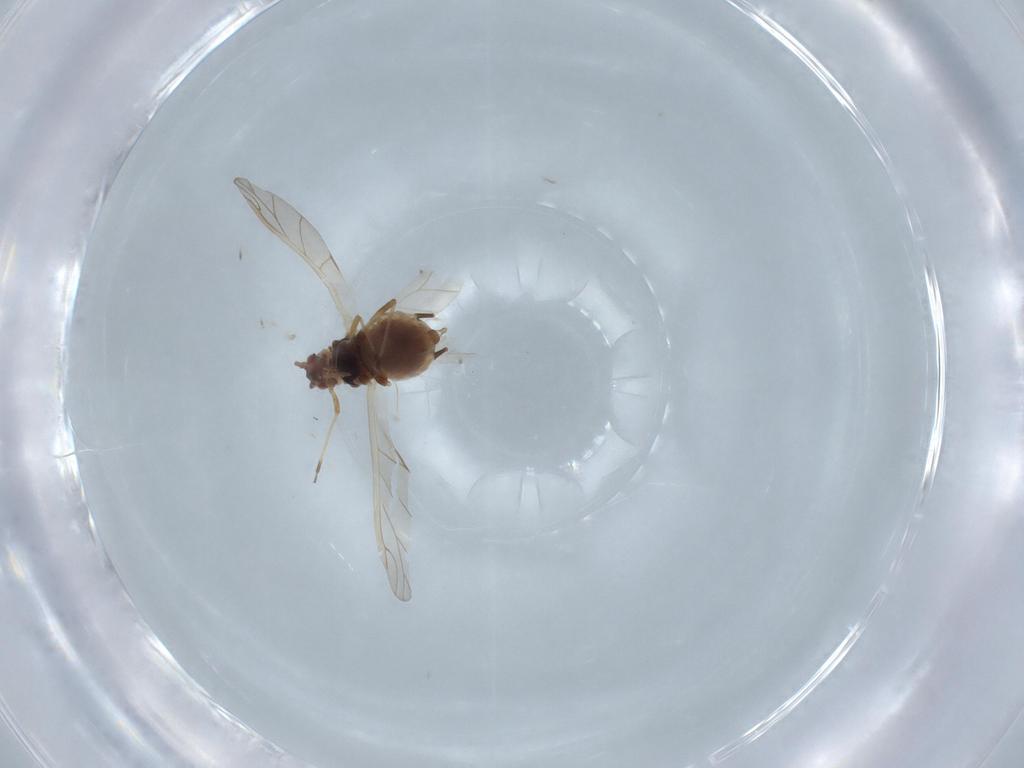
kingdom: Animalia
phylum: Arthropoda
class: Insecta
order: Hemiptera
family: Aphididae
